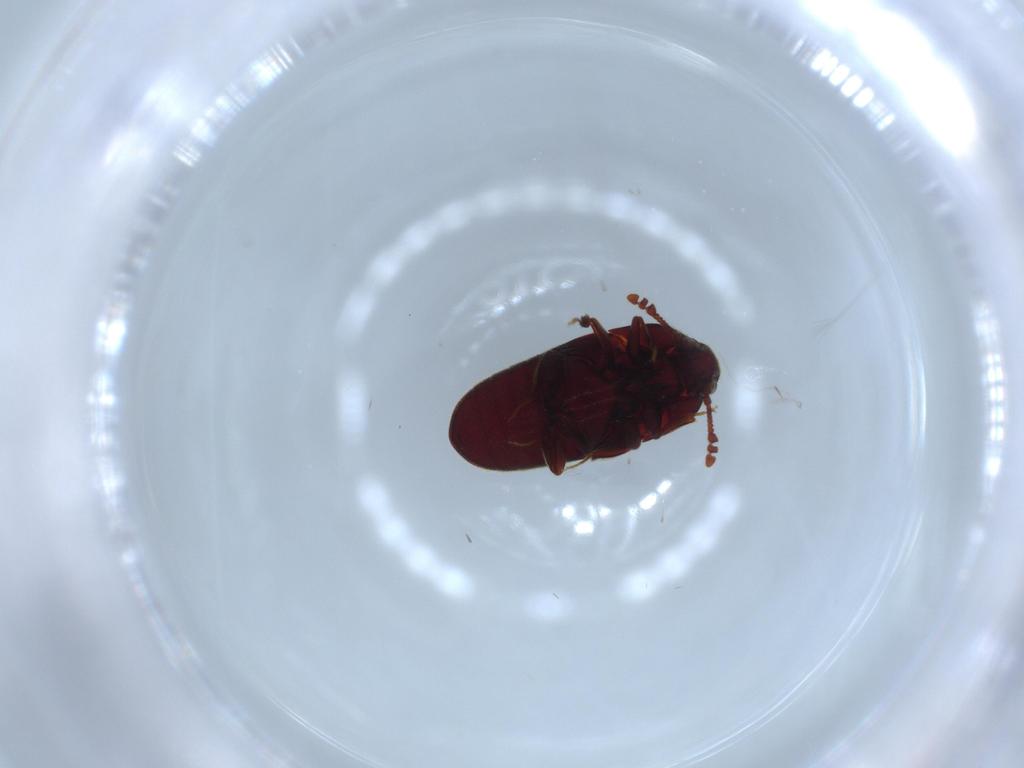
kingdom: Animalia
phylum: Arthropoda
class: Insecta
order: Coleoptera
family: Throscidae
